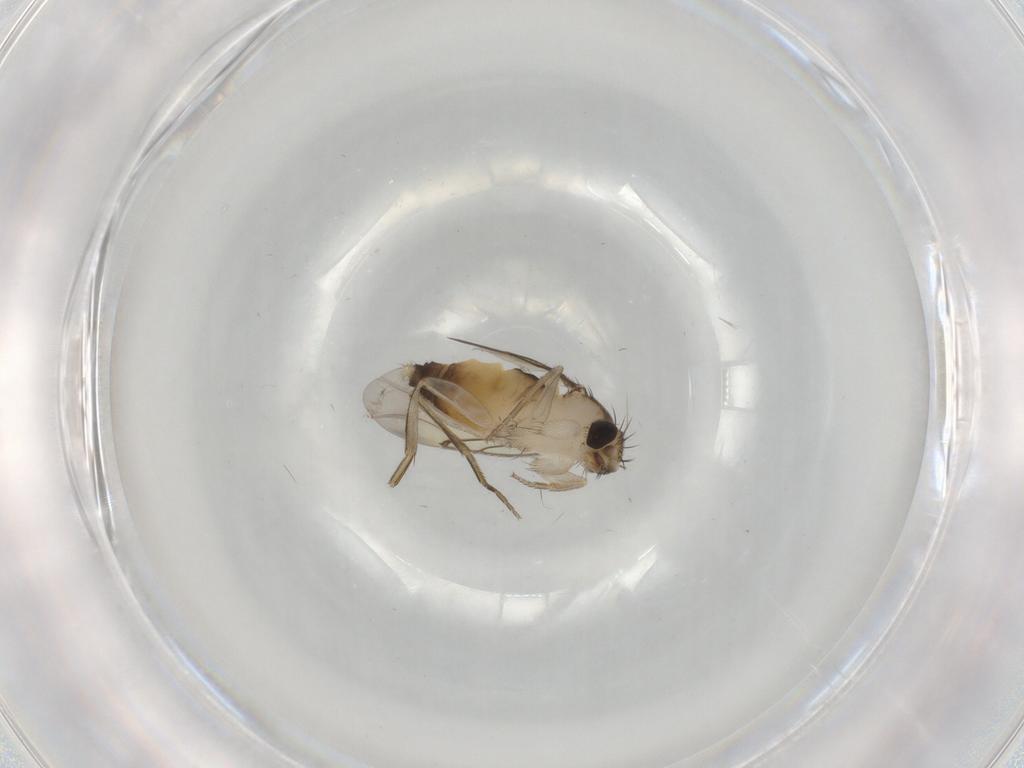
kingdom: Animalia
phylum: Arthropoda
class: Insecta
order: Diptera
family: Phoridae
